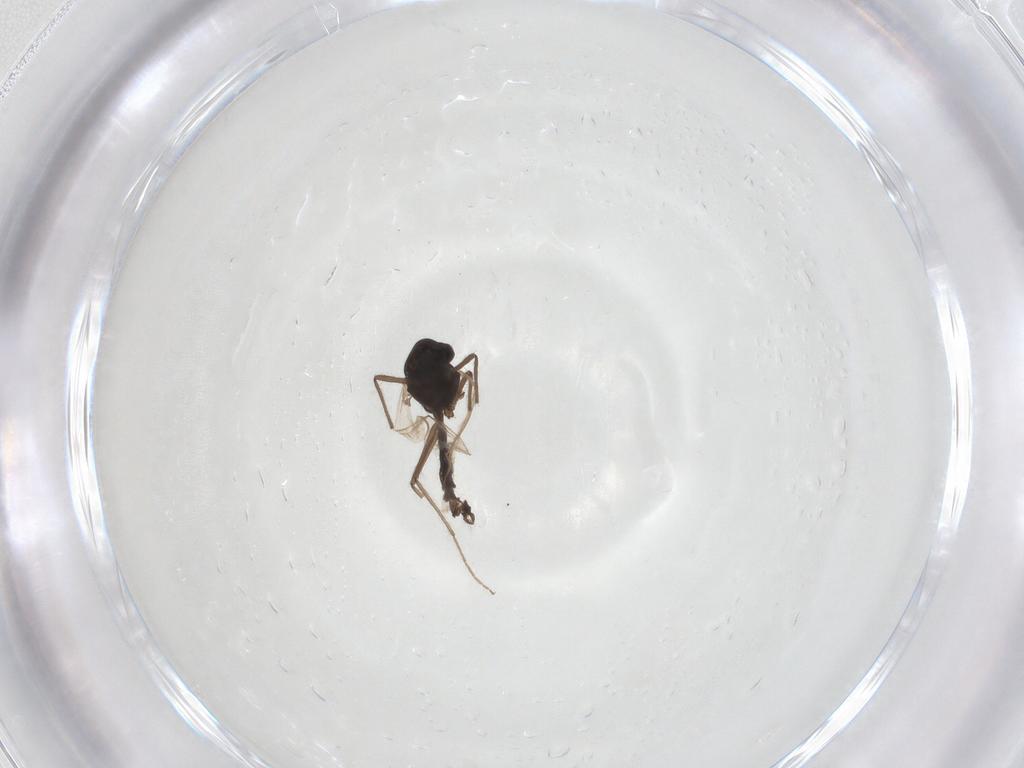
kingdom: Animalia
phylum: Arthropoda
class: Insecta
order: Diptera
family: Chironomidae
